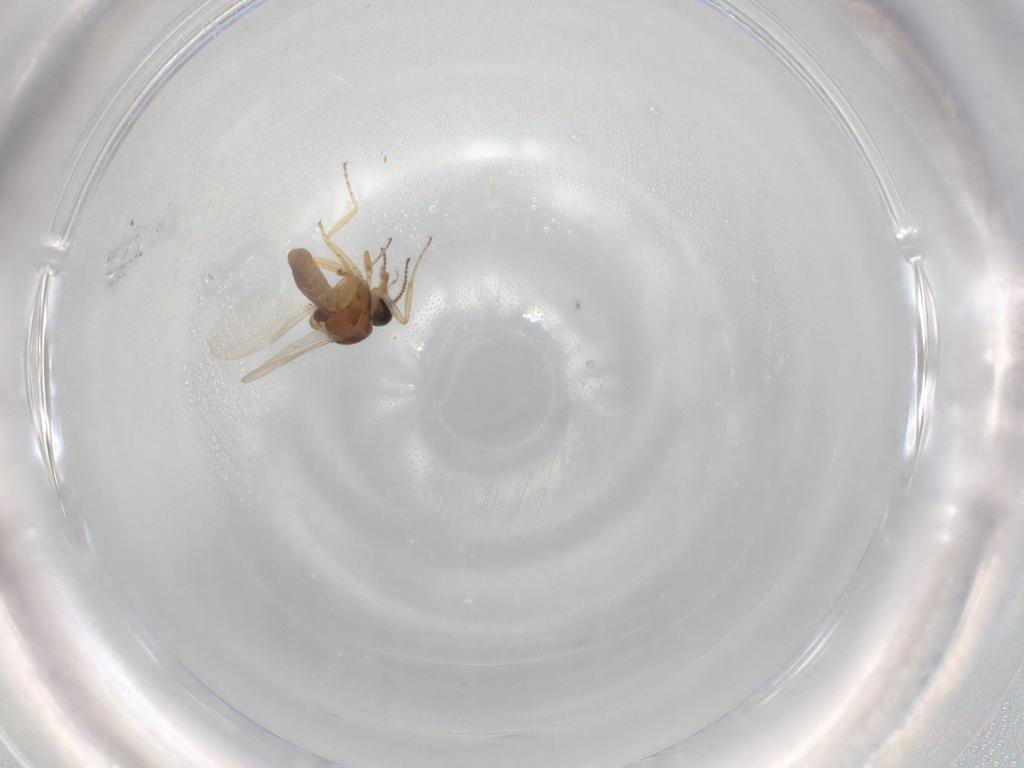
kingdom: Animalia
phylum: Arthropoda
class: Insecta
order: Diptera
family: Ceratopogonidae
